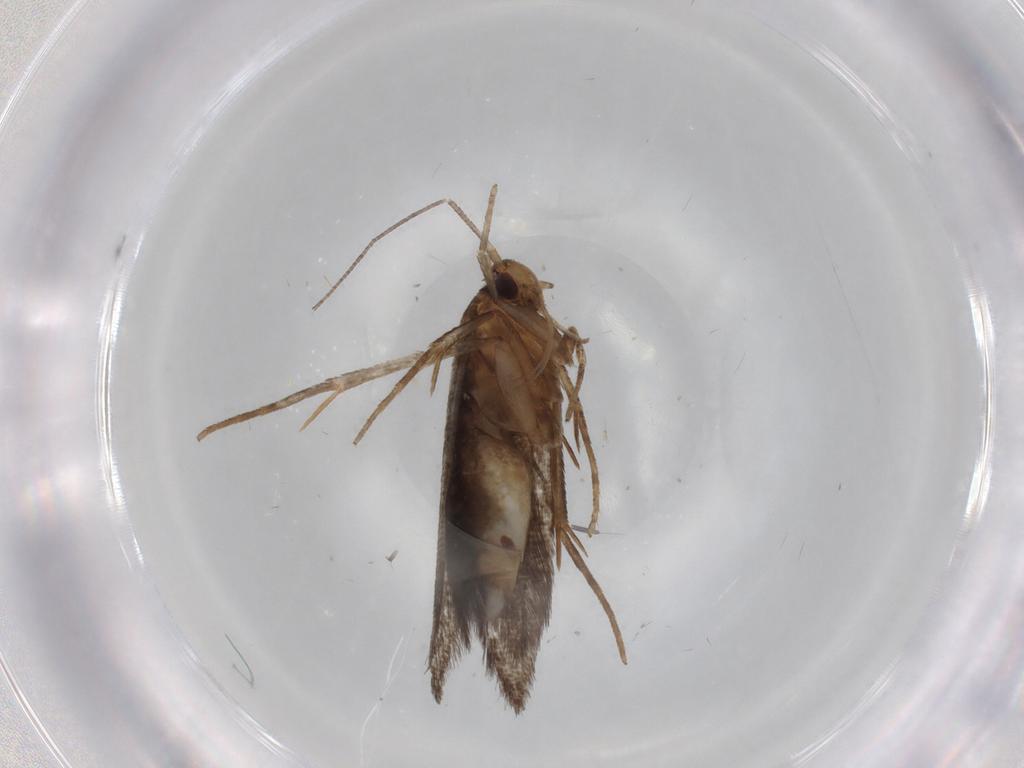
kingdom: Animalia
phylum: Arthropoda
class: Insecta
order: Lepidoptera
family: Cosmopterigidae
